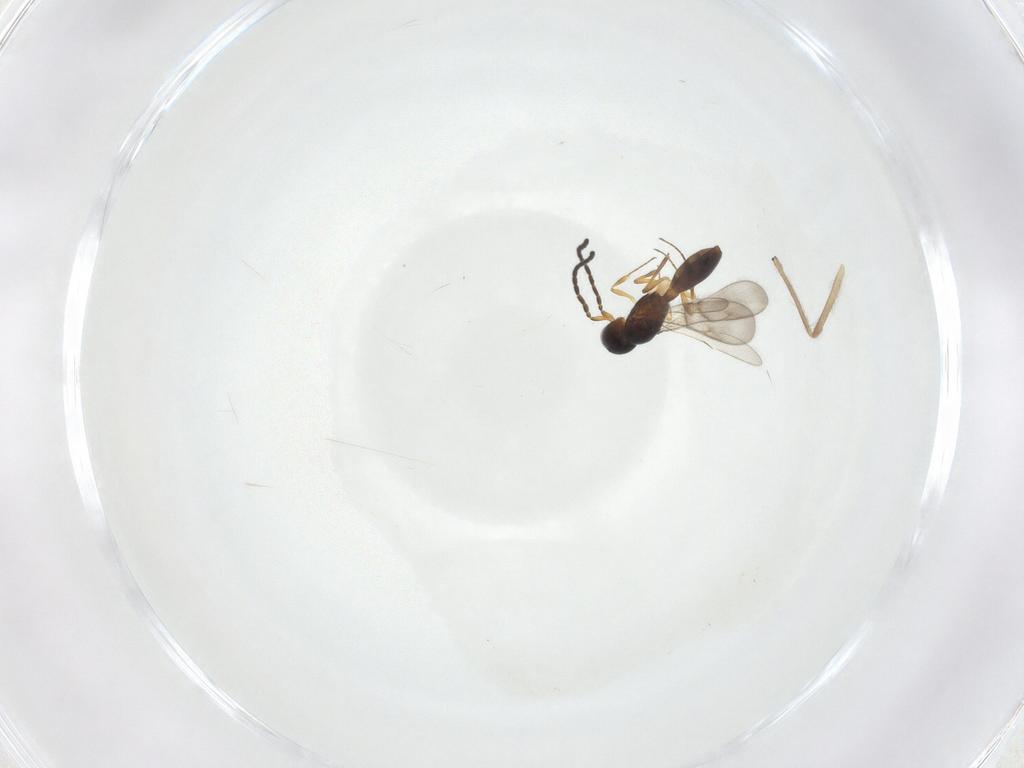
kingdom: Animalia
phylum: Arthropoda
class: Insecta
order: Hymenoptera
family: Scelionidae
